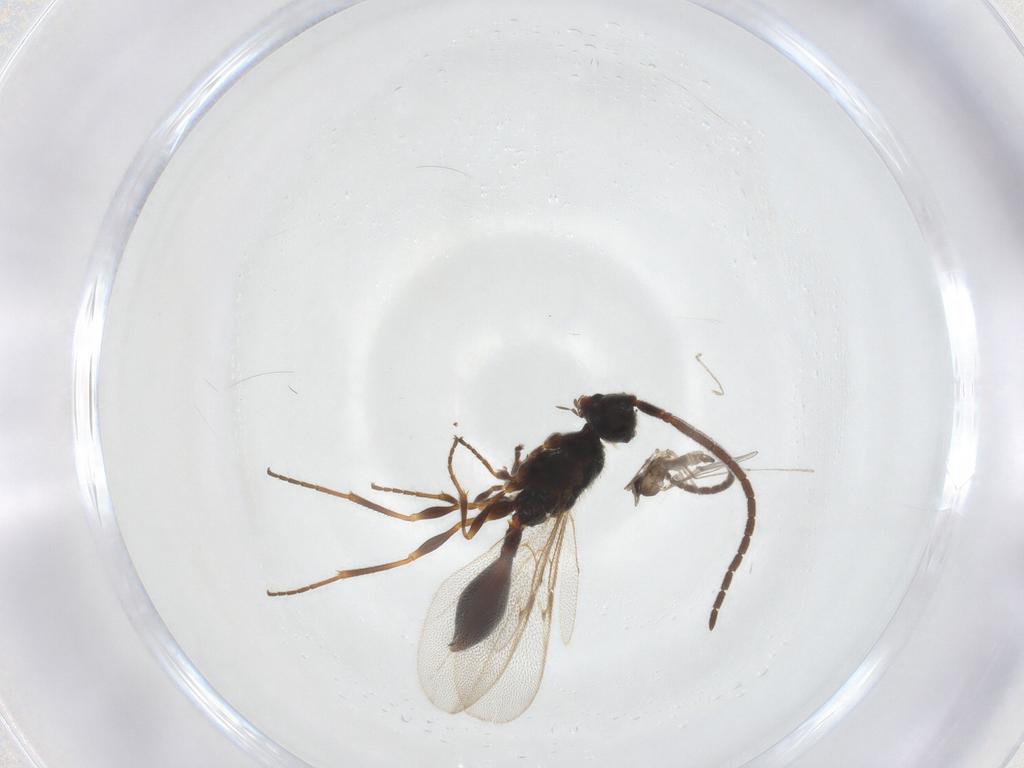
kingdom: Animalia
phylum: Arthropoda
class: Insecta
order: Diptera
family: Cecidomyiidae
